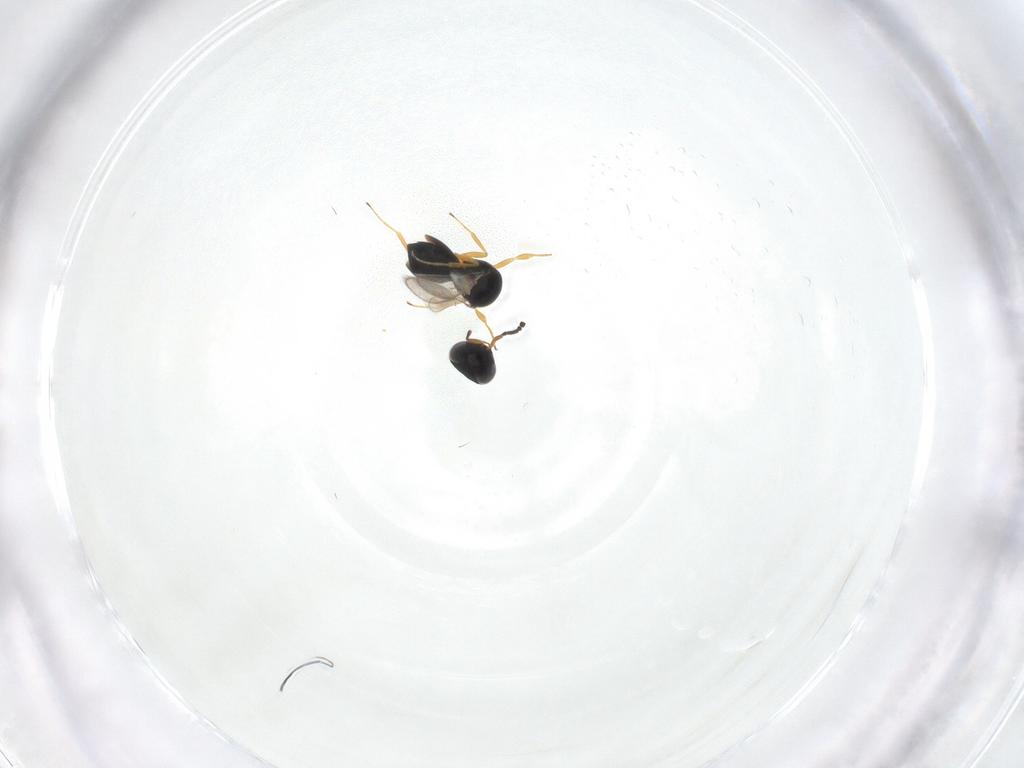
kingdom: Animalia
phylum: Arthropoda
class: Insecta
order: Hymenoptera
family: Scelionidae
